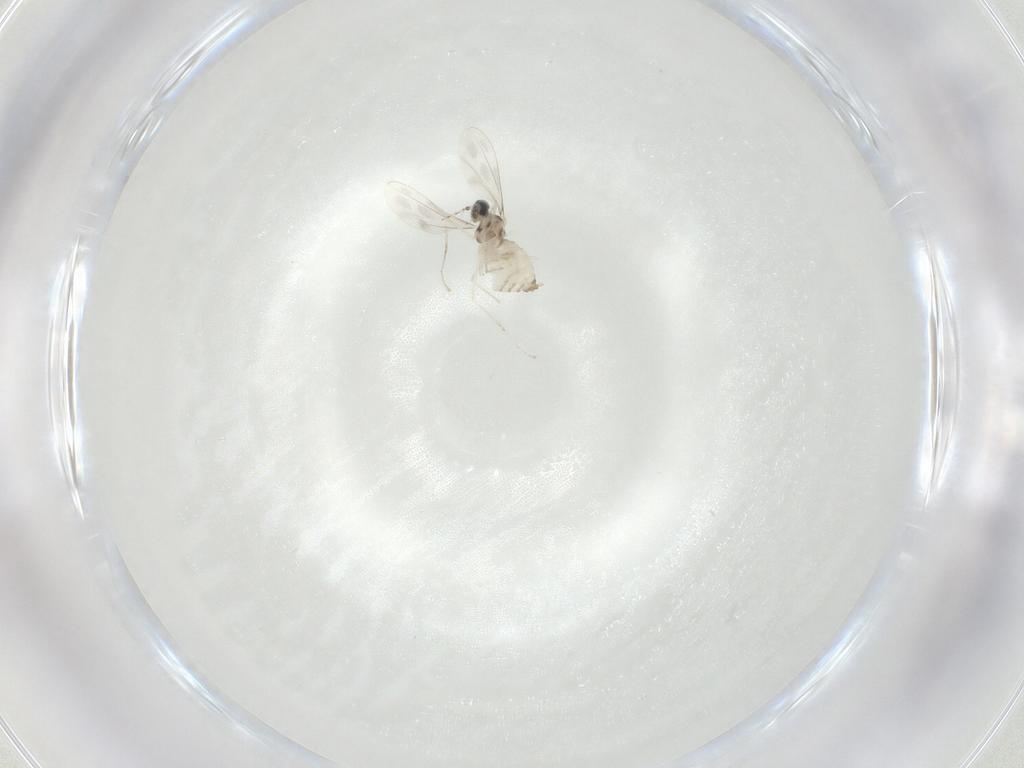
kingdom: Animalia
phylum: Arthropoda
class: Insecta
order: Diptera
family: Cecidomyiidae
